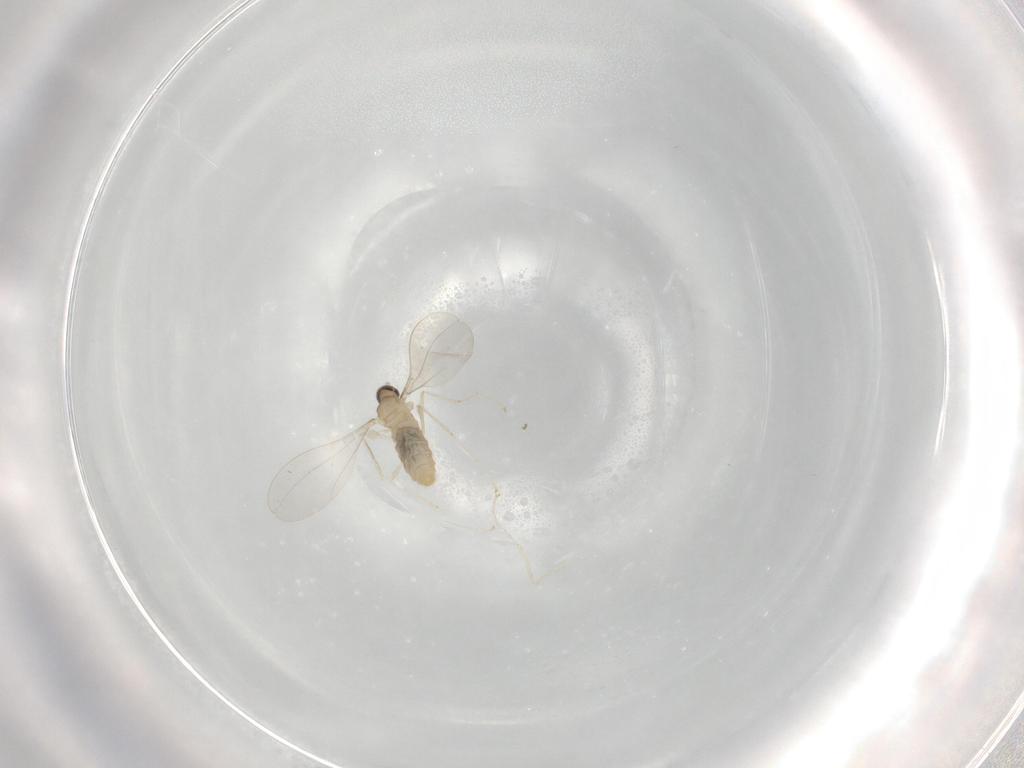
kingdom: Animalia
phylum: Arthropoda
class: Insecta
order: Diptera
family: Cecidomyiidae
